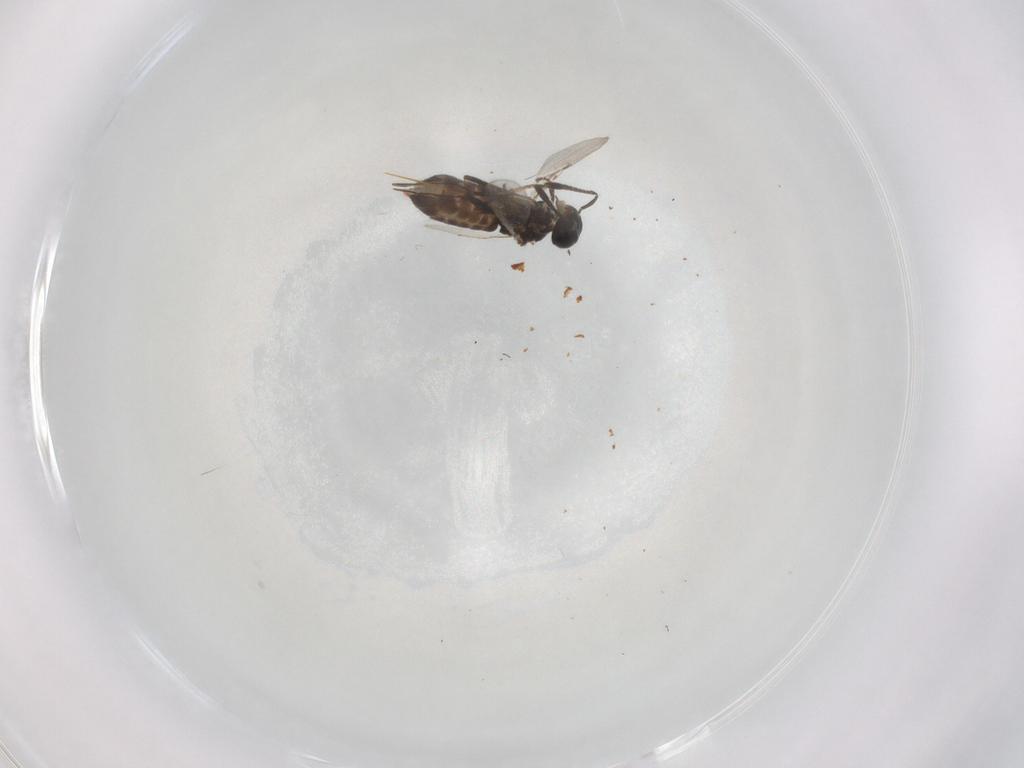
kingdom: Animalia
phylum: Arthropoda
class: Insecta
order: Hymenoptera
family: Encyrtidae
